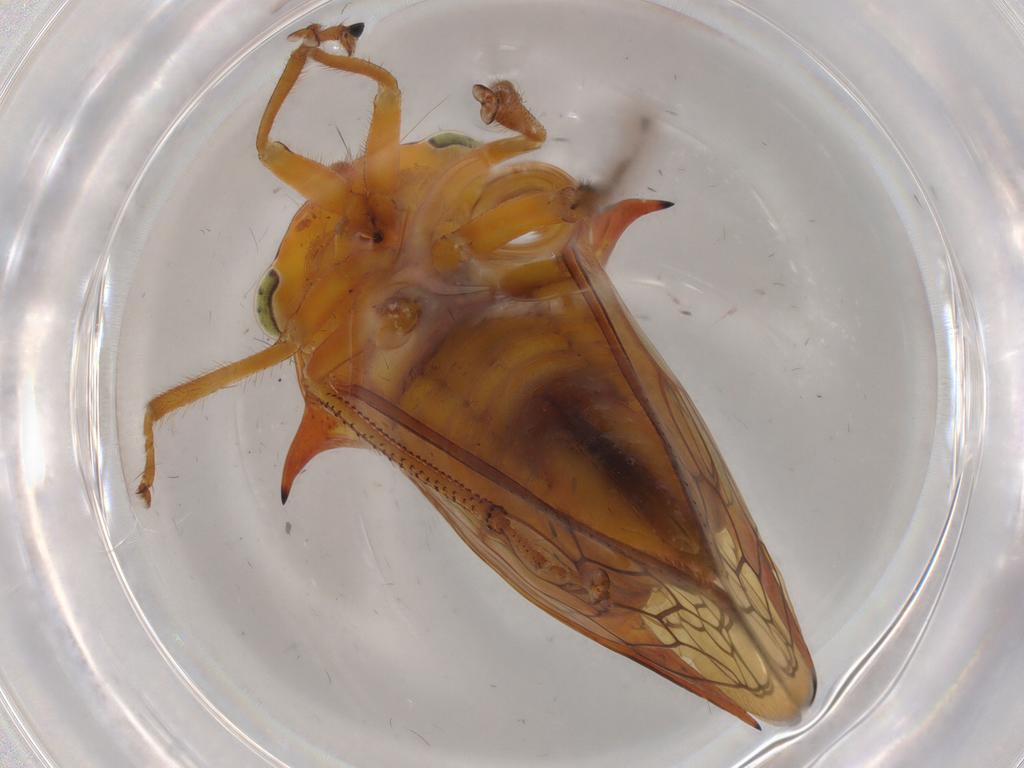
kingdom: Animalia
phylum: Arthropoda
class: Insecta
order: Hemiptera
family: Membracidae
